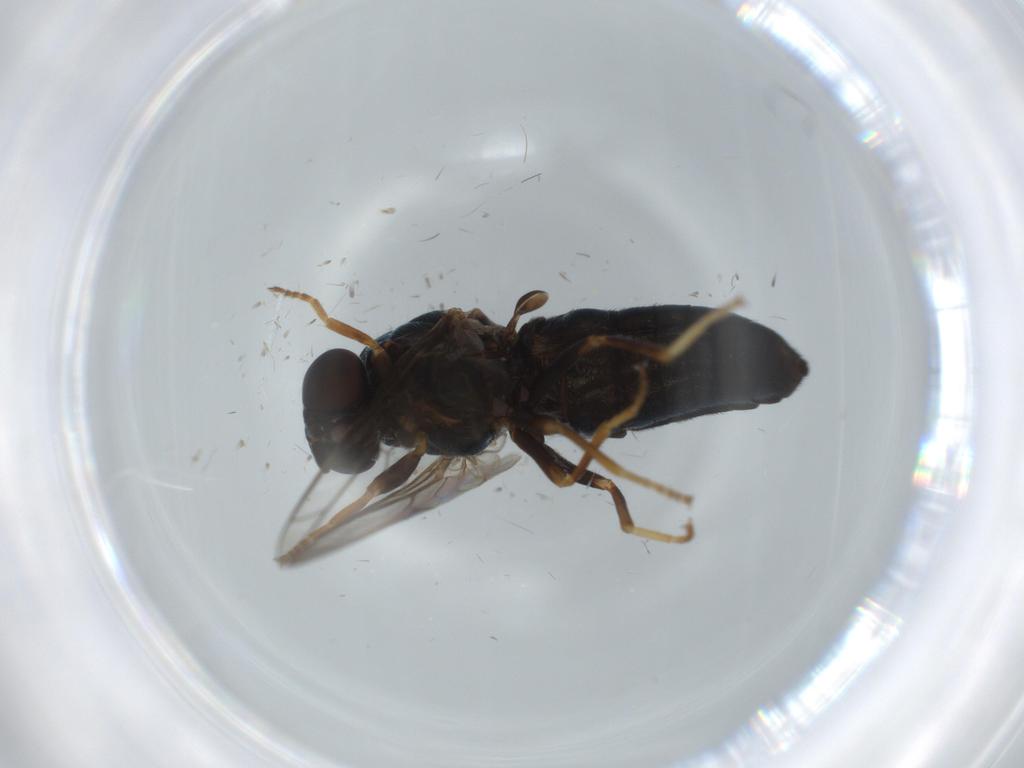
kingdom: Animalia
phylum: Arthropoda
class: Insecta
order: Diptera
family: Scenopinidae
